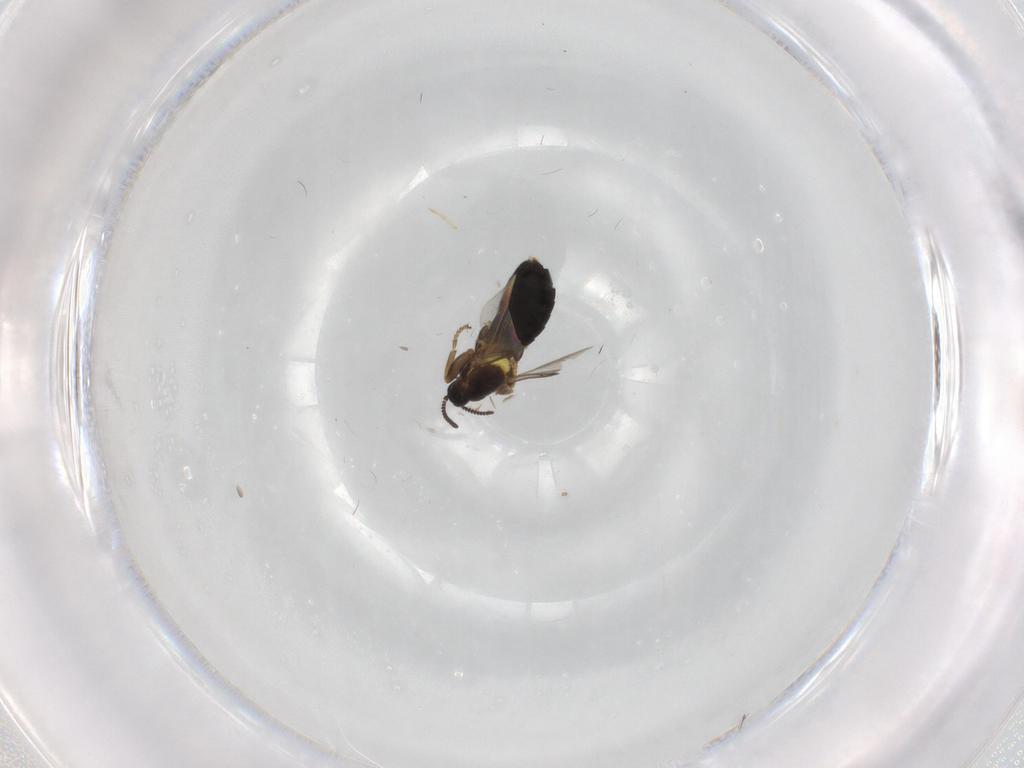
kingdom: Animalia
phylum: Arthropoda
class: Insecta
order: Diptera
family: Scatopsidae
